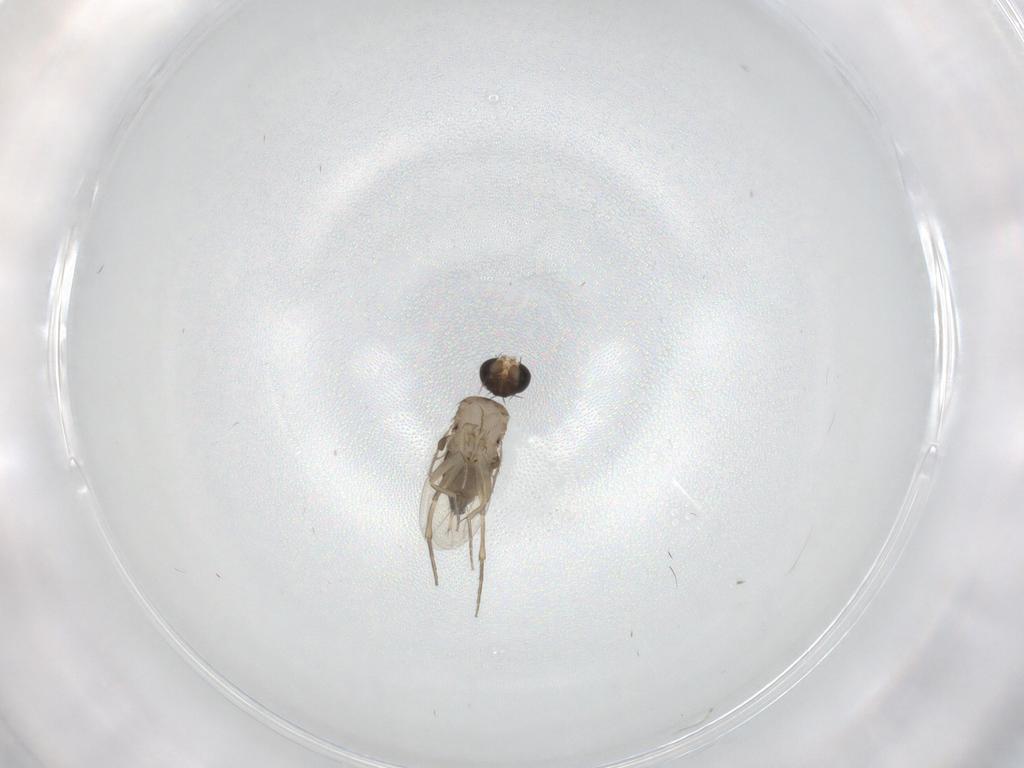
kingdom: Animalia
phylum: Arthropoda
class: Insecta
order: Diptera
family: Phoridae
